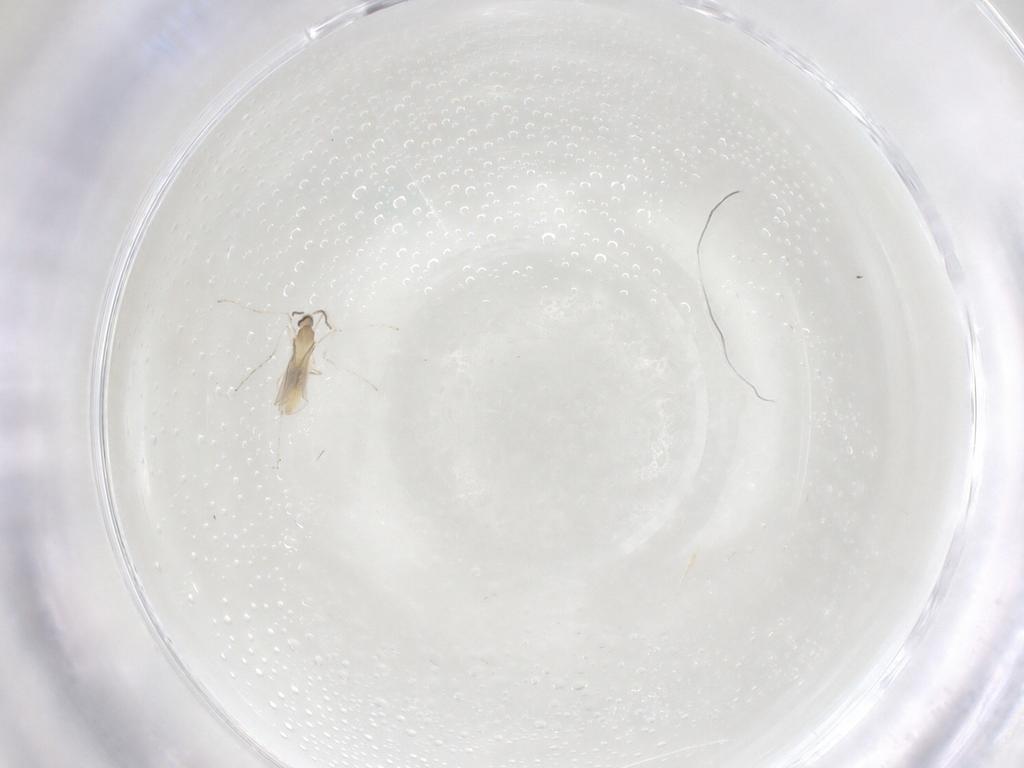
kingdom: Animalia
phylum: Arthropoda
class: Insecta
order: Diptera
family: Cecidomyiidae
